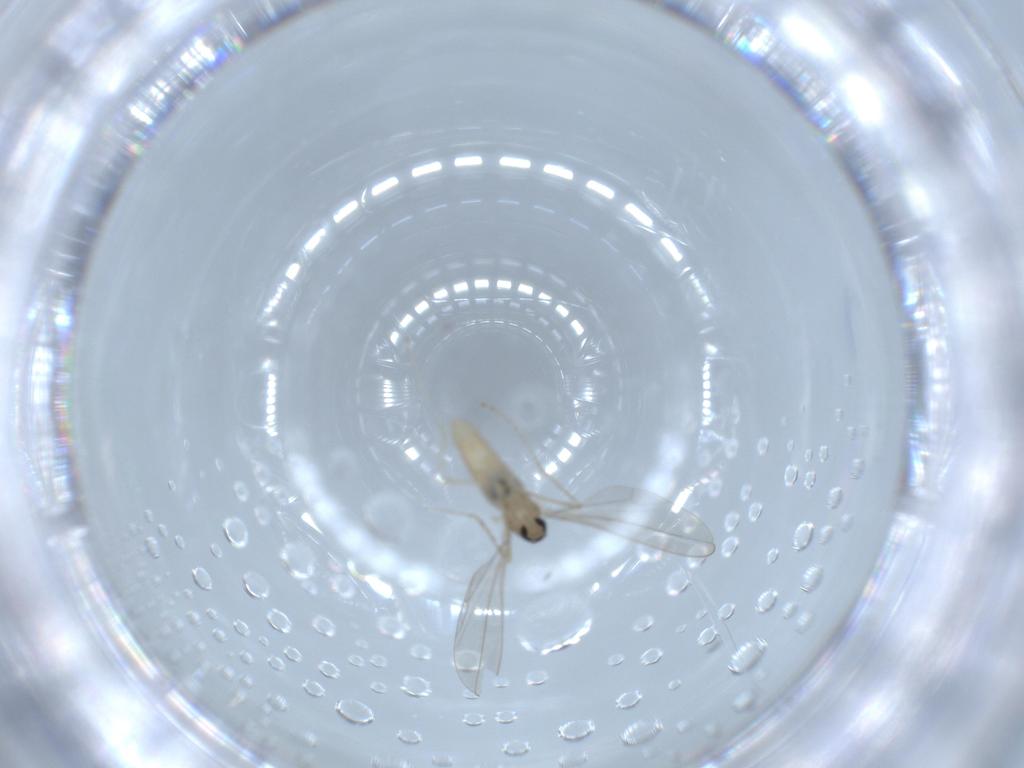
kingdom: Animalia
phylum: Arthropoda
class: Insecta
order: Diptera
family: Cecidomyiidae
